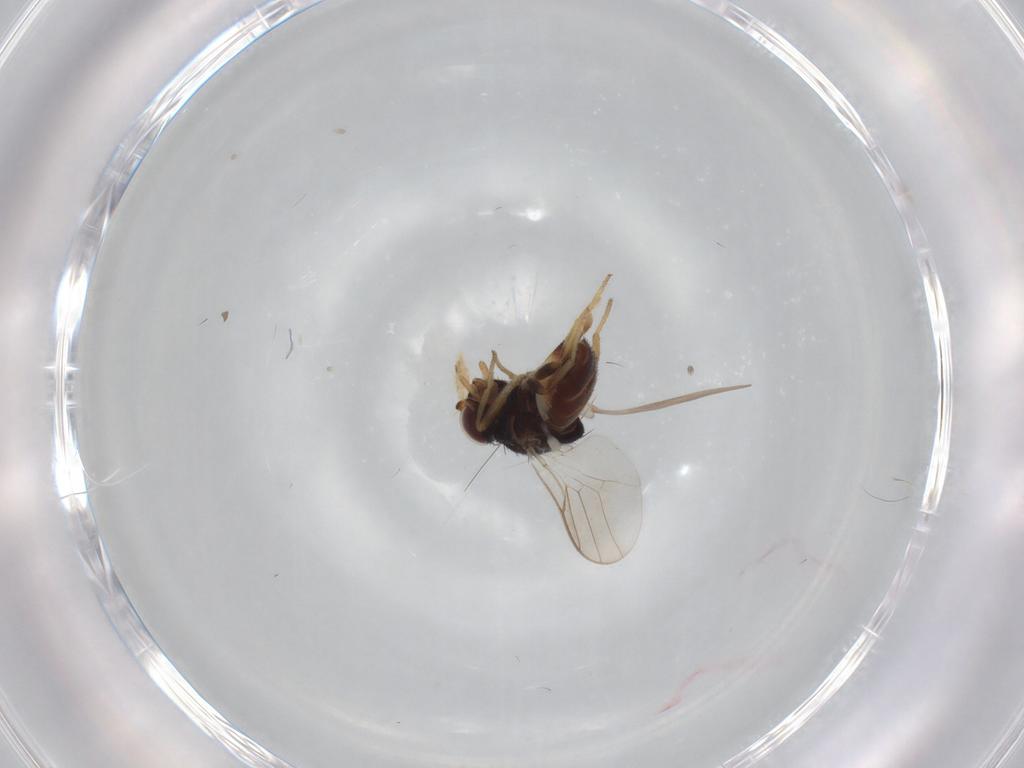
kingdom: Animalia
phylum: Arthropoda
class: Insecta
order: Diptera
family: Chloropidae
